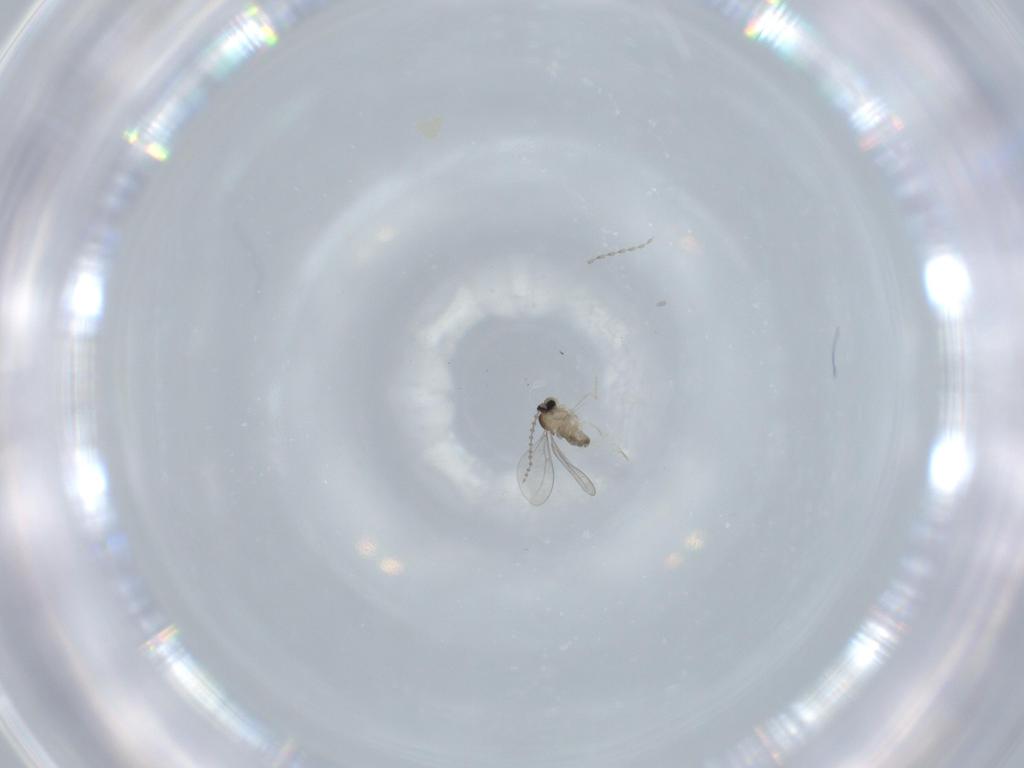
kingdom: Animalia
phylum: Arthropoda
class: Insecta
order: Diptera
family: Cecidomyiidae
